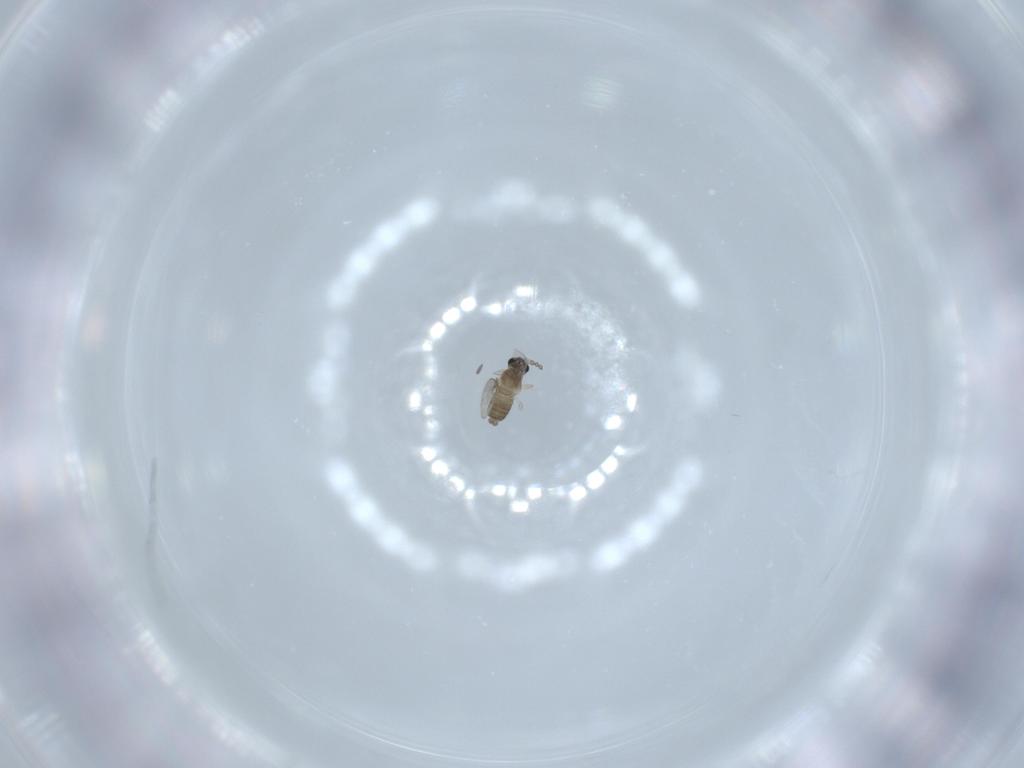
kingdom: Animalia
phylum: Arthropoda
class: Insecta
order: Diptera
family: Cecidomyiidae
